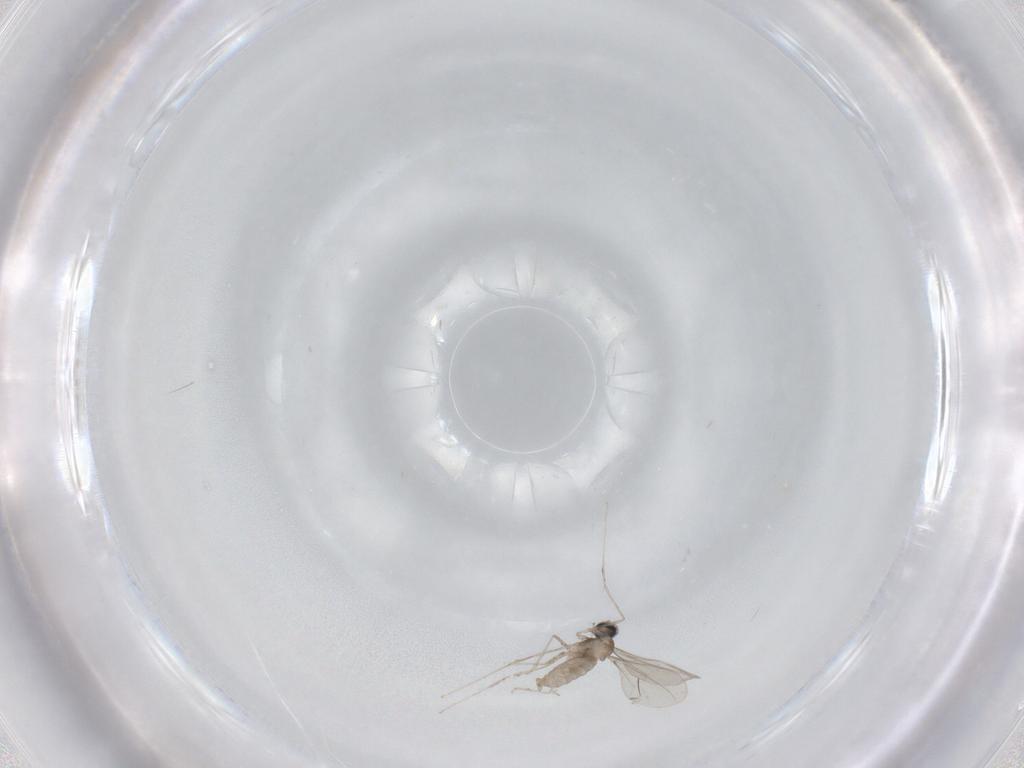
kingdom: Animalia
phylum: Arthropoda
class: Insecta
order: Diptera
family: Psychodidae
